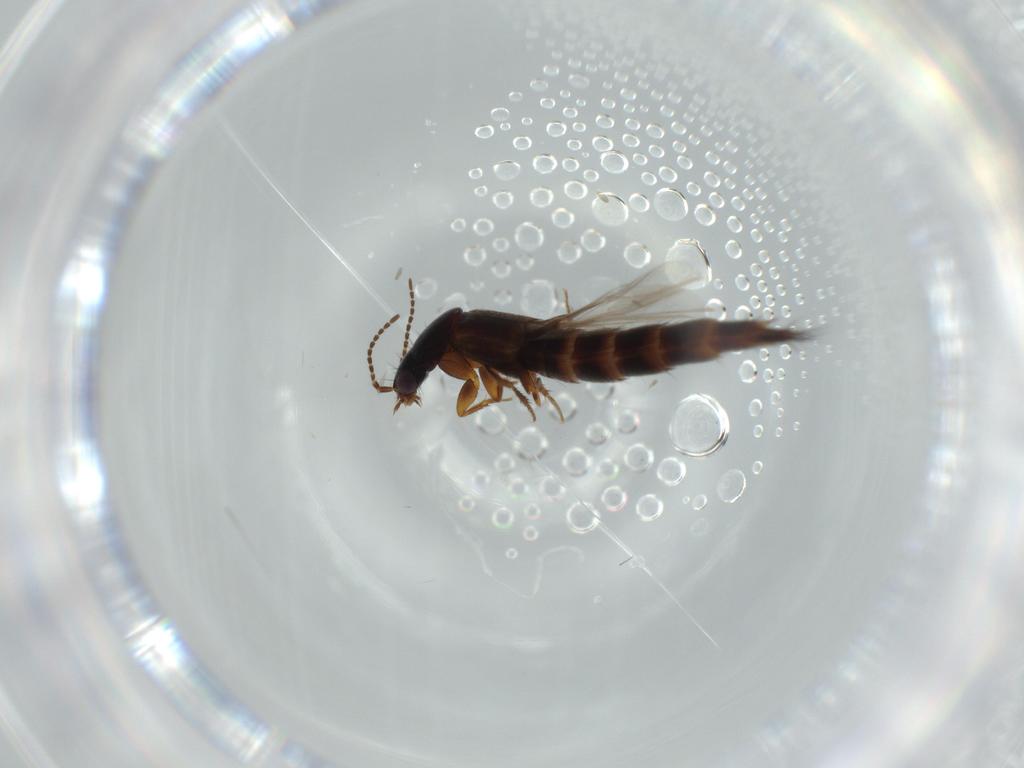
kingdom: Animalia
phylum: Arthropoda
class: Insecta
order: Coleoptera
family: Staphylinidae
